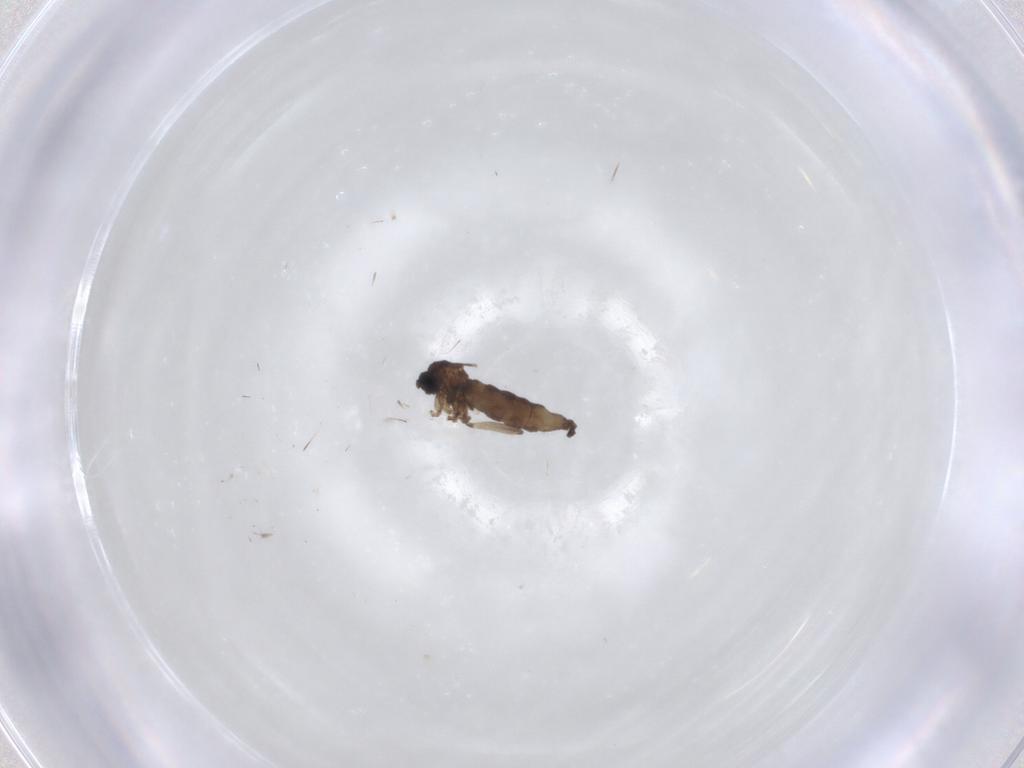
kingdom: Animalia
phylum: Arthropoda
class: Insecta
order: Diptera
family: Sciaridae
